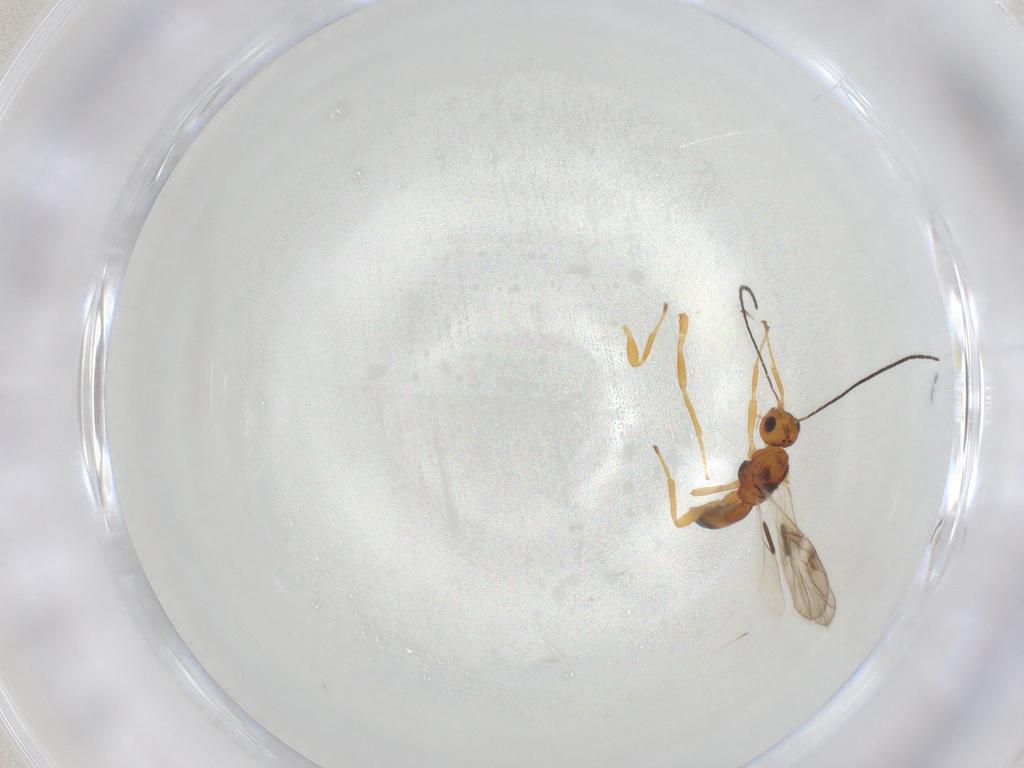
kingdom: Animalia
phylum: Arthropoda
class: Insecta
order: Hymenoptera
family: Braconidae
